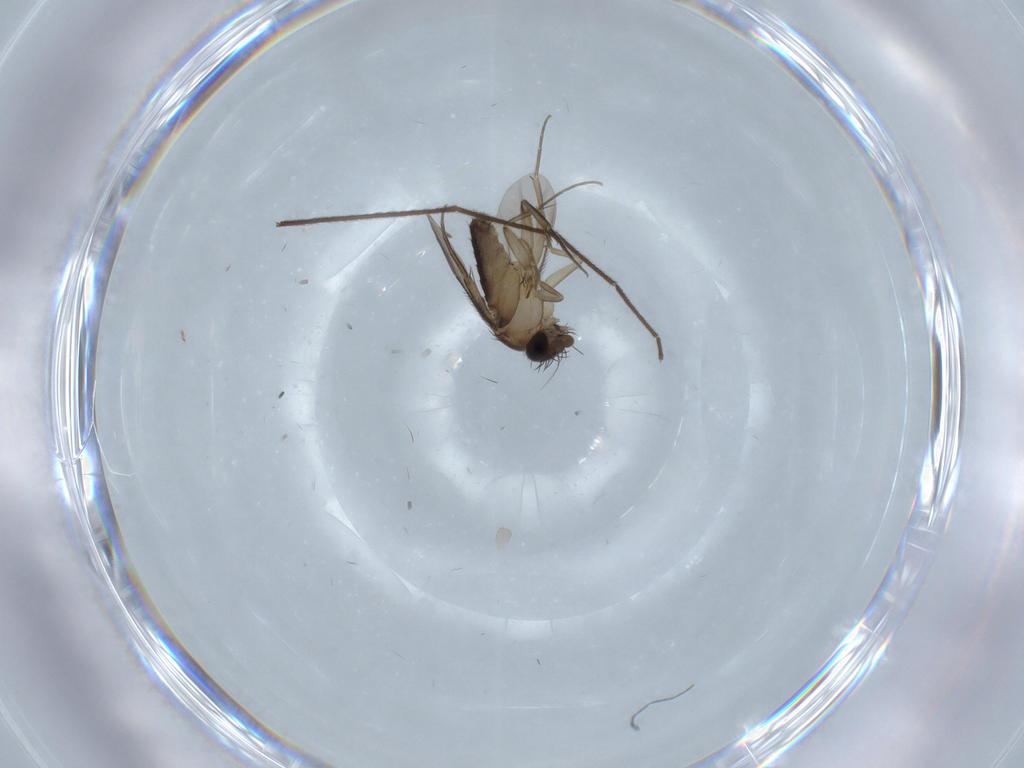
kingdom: Animalia
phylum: Arthropoda
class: Insecta
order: Diptera
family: Phoridae
